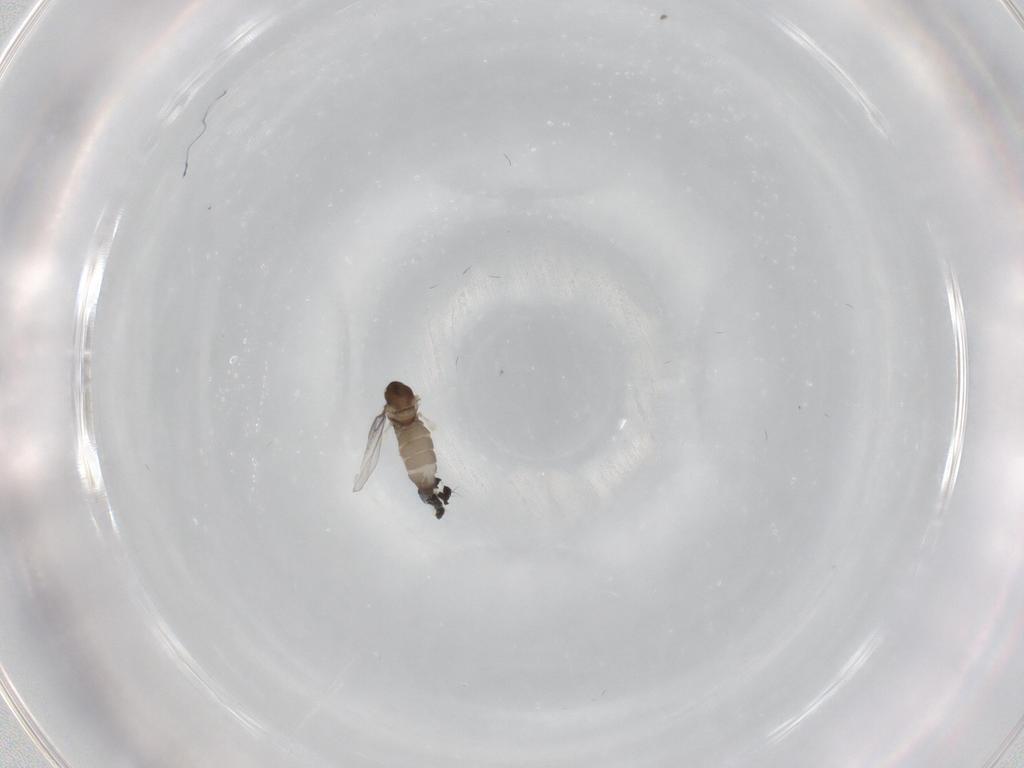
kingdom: Animalia
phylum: Arthropoda
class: Insecta
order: Diptera
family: Sciaridae
